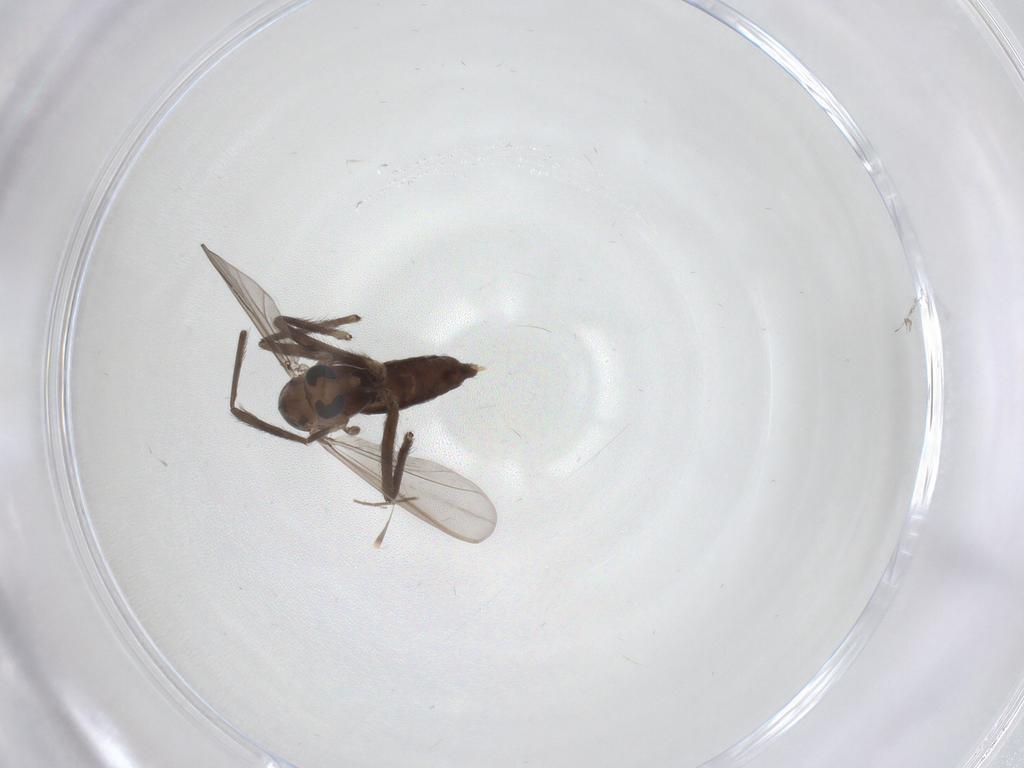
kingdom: Animalia
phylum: Arthropoda
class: Insecta
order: Diptera
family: Chironomidae
